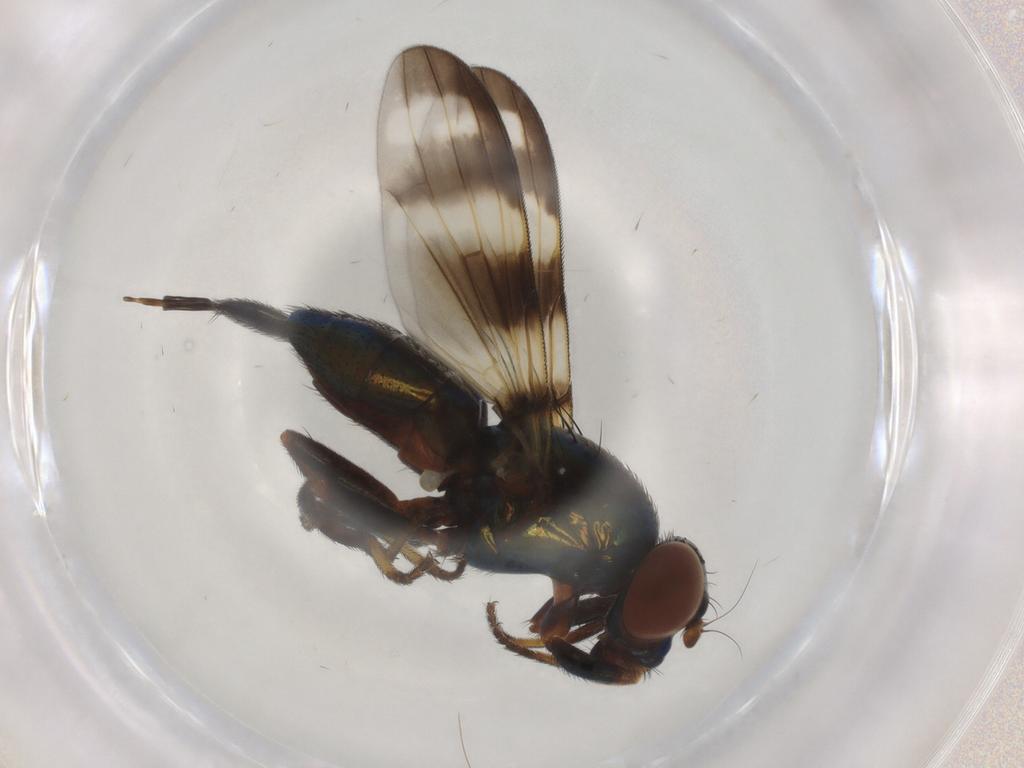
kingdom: Animalia
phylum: Arthropoda
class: Insecta
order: Diptera
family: Ulidiidae
